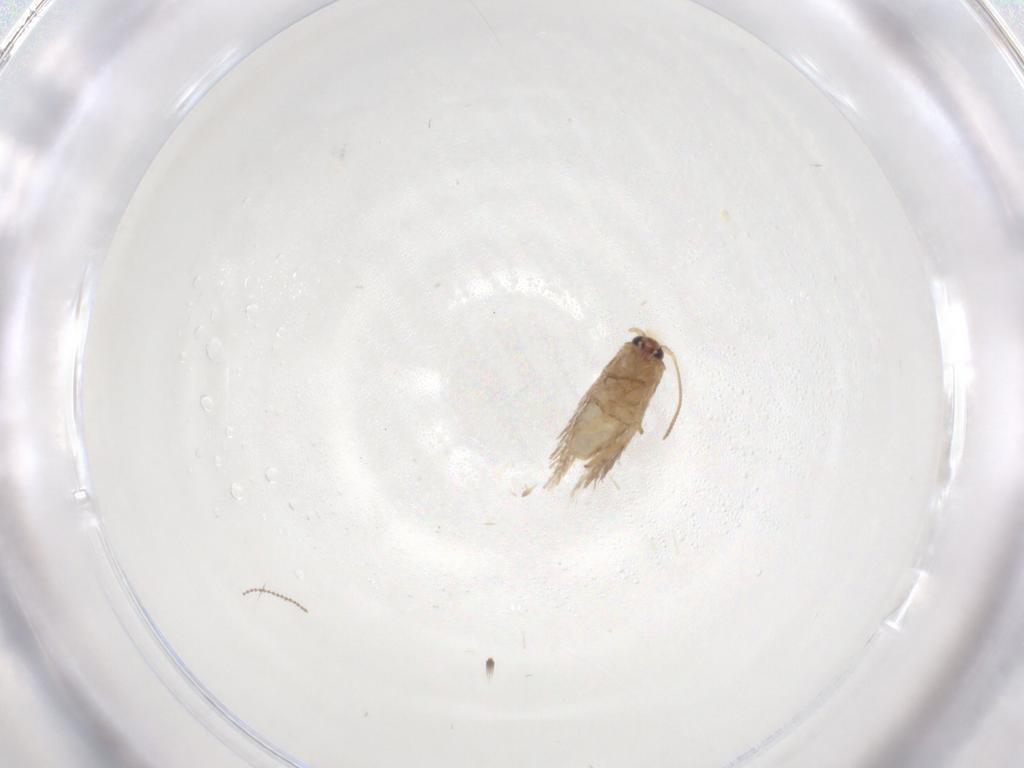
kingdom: Animalia
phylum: Arthropoda
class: Insecta
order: Lepidoptera
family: Nepticulidae
